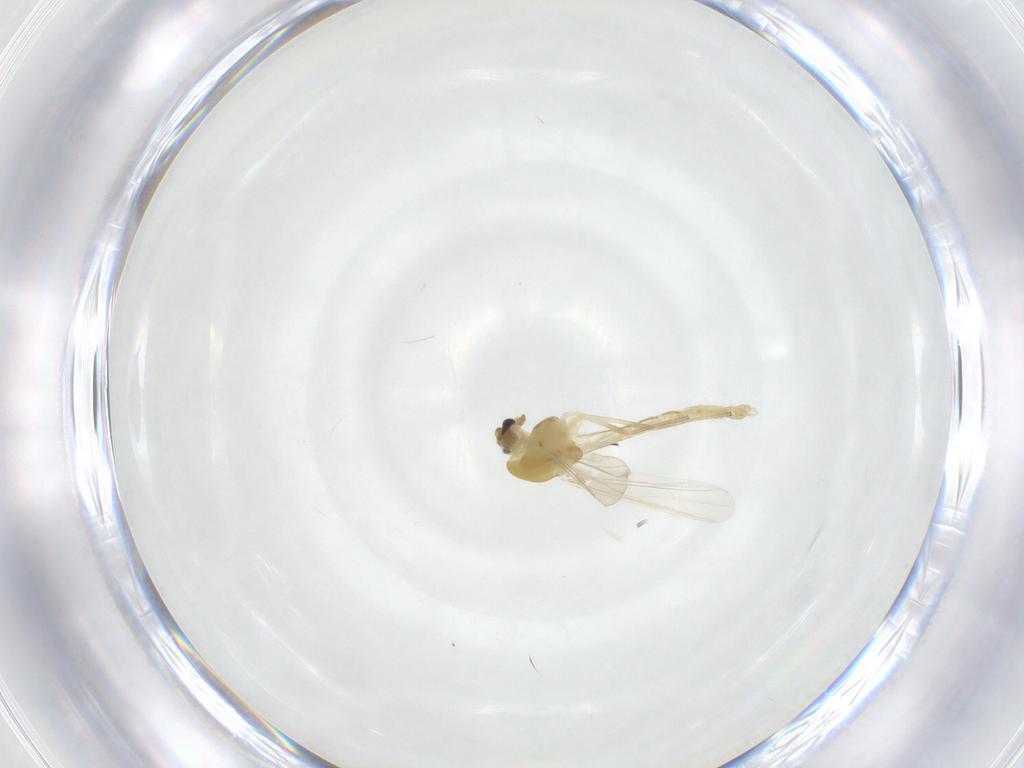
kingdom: Animalia
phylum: Arthropoda
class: Insecta
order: Diptera
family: Chironomidae
